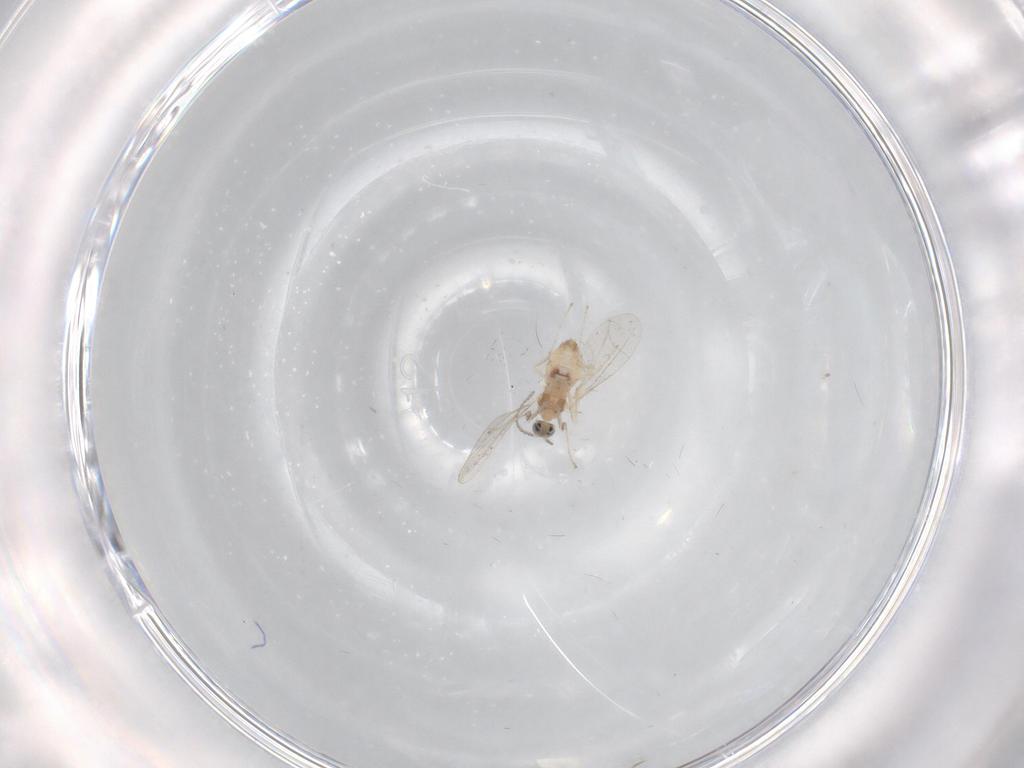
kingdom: Animalia
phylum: Arthropoda
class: Insecta
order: Diptera
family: Cecidomyiidae
